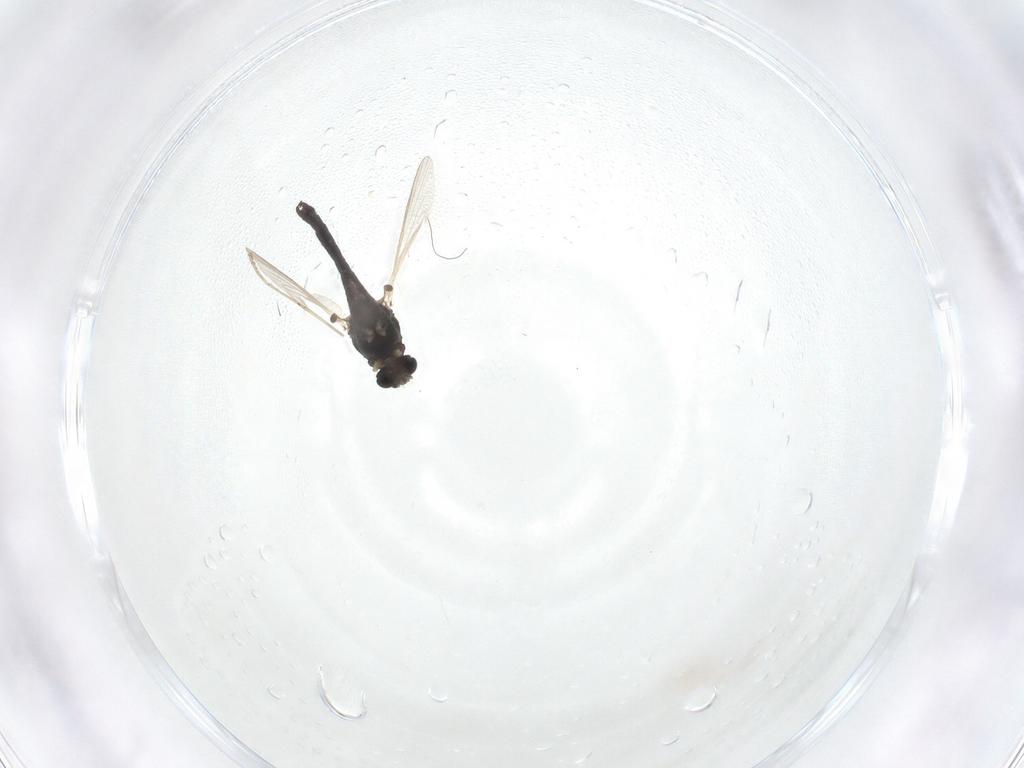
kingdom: Animalia
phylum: Arthropoda
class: Insecta
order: Diptera
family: Chironomidae
